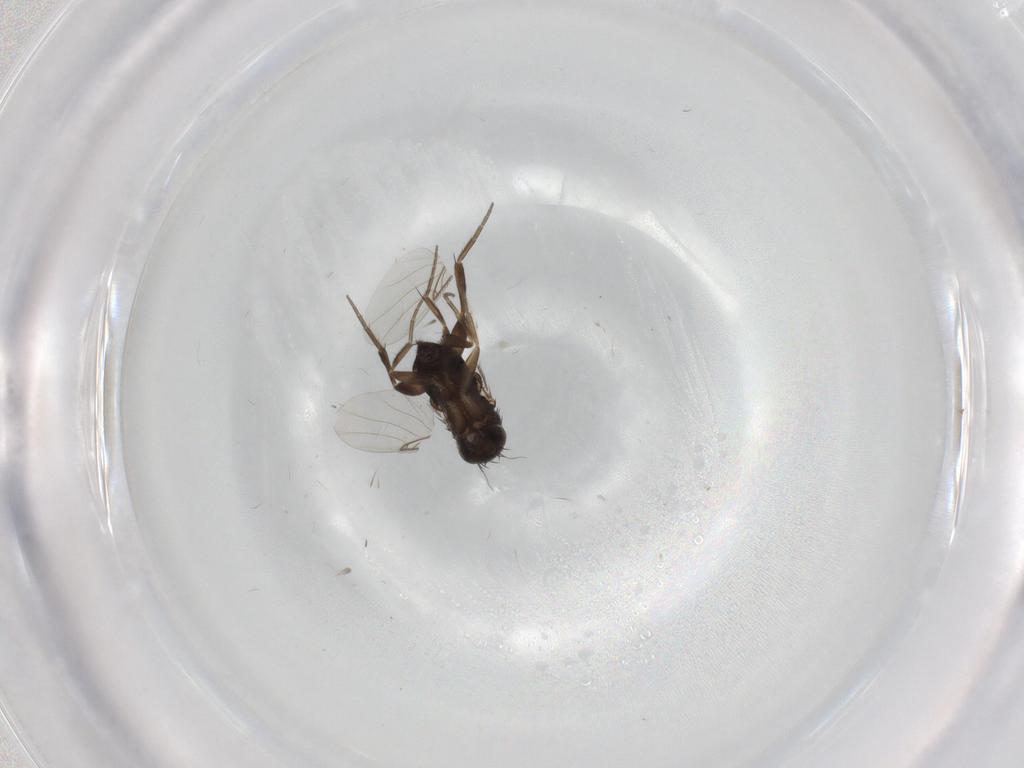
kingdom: Animalia
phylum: Arthropoda
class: Insecta
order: Diptera
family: Phoridae
